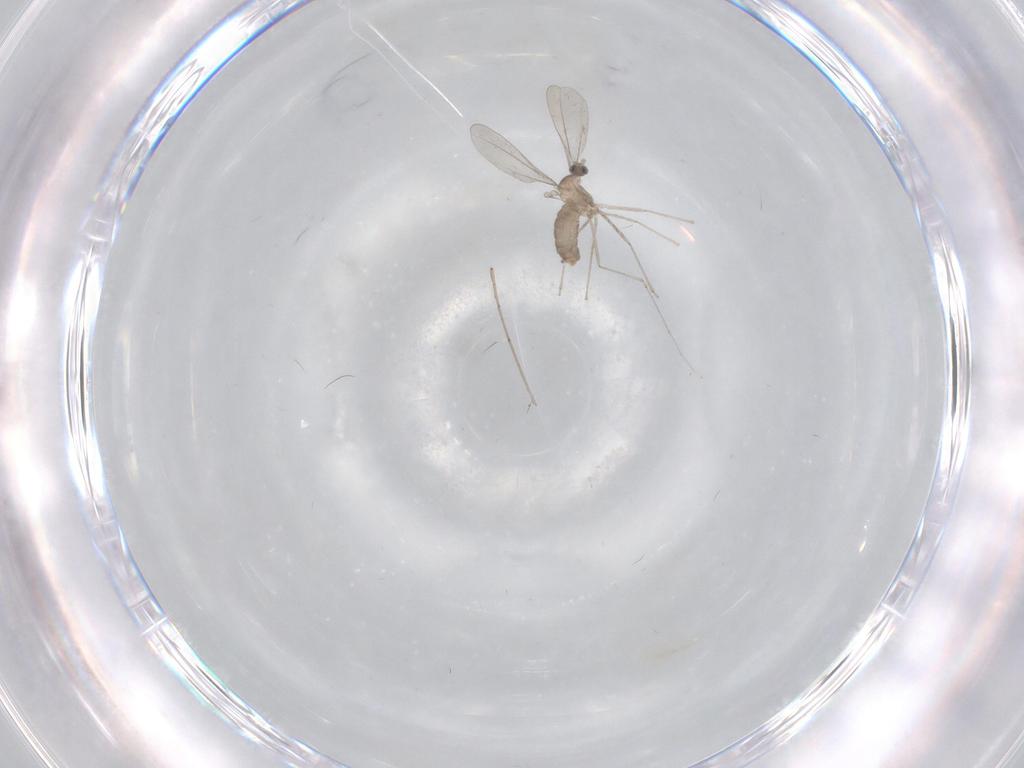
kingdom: Animalia
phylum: Arthropoda
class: Insecta
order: Diptera
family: Cecidomyiidae
